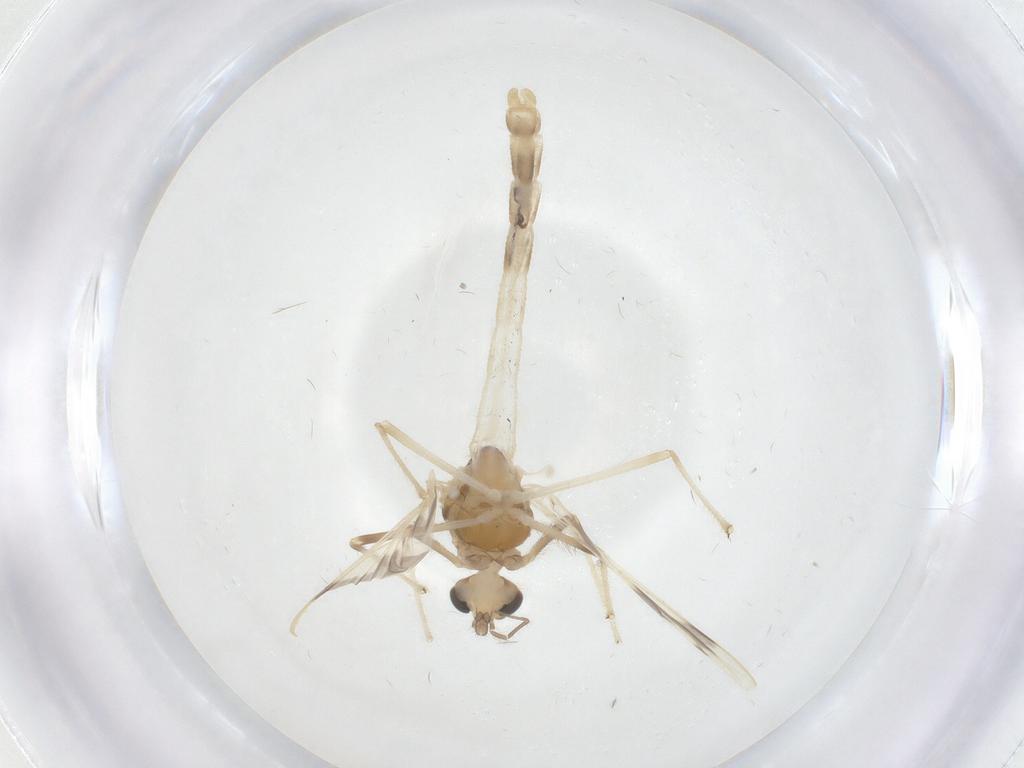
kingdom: Animalia
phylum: Arthropoda
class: Insecta
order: Diptera
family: Chironomidae
